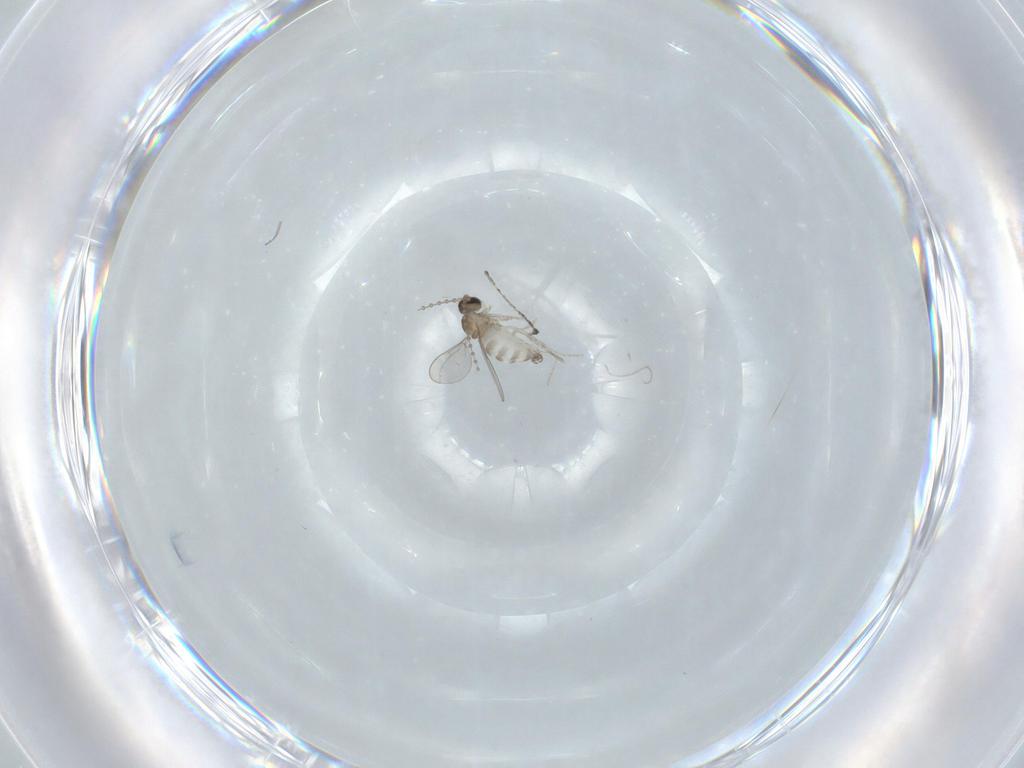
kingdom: Animalia
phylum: Arthropoda
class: Insecta
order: Diptera
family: Cecidomyiidae
